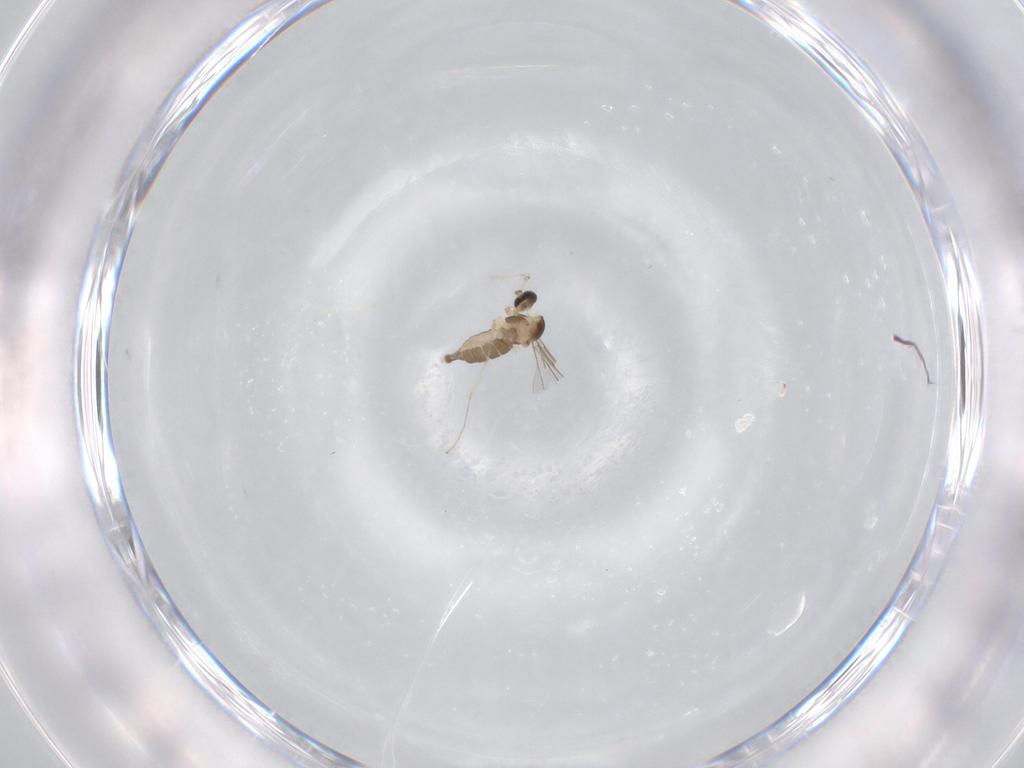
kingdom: Animalia
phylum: Arthropoda
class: Insecta
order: Diptera
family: Cecidomyiidae
